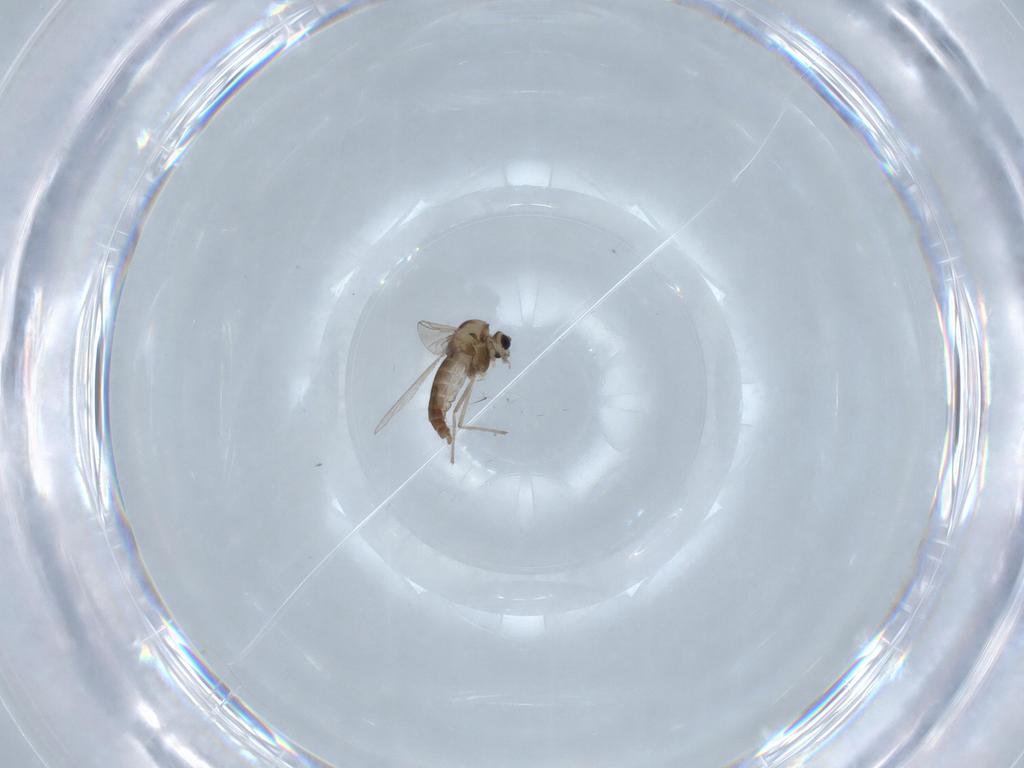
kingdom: Animalia
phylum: Arthropoda
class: Insecta
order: Diptera
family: Chironomidae
